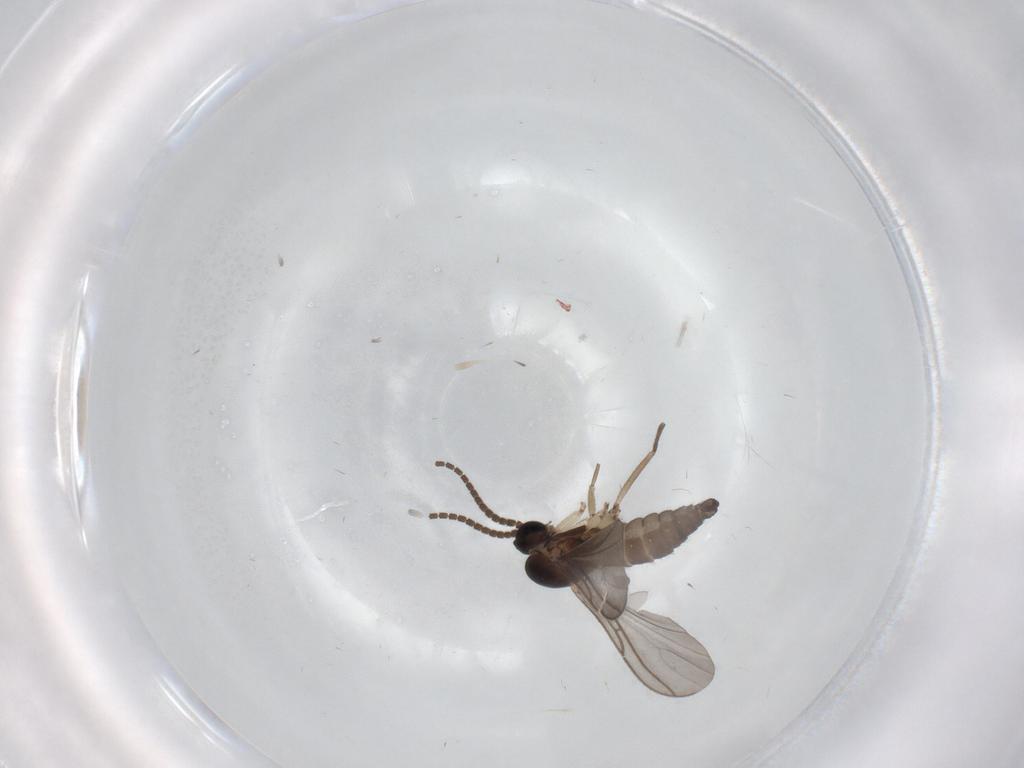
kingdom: Animalia
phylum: Arthropoda
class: Insecta
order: Diptera
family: Sciaridae
